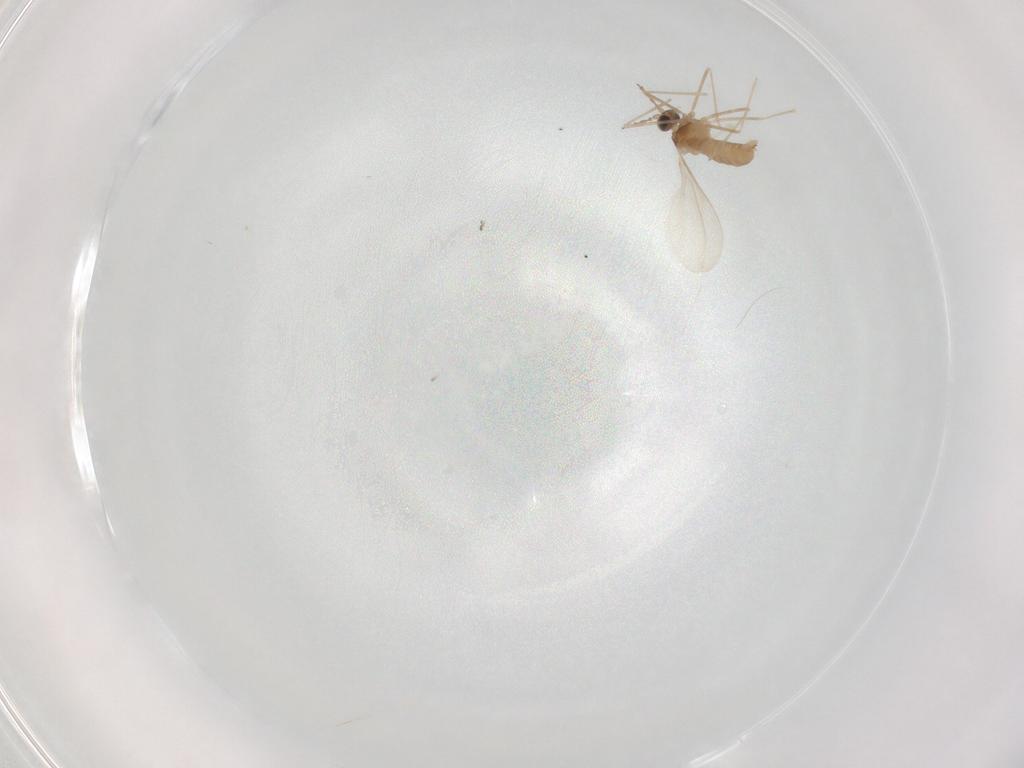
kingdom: Animalia
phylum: Arthropoda
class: Insecta
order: Diptera
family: Cecidomyiidae
